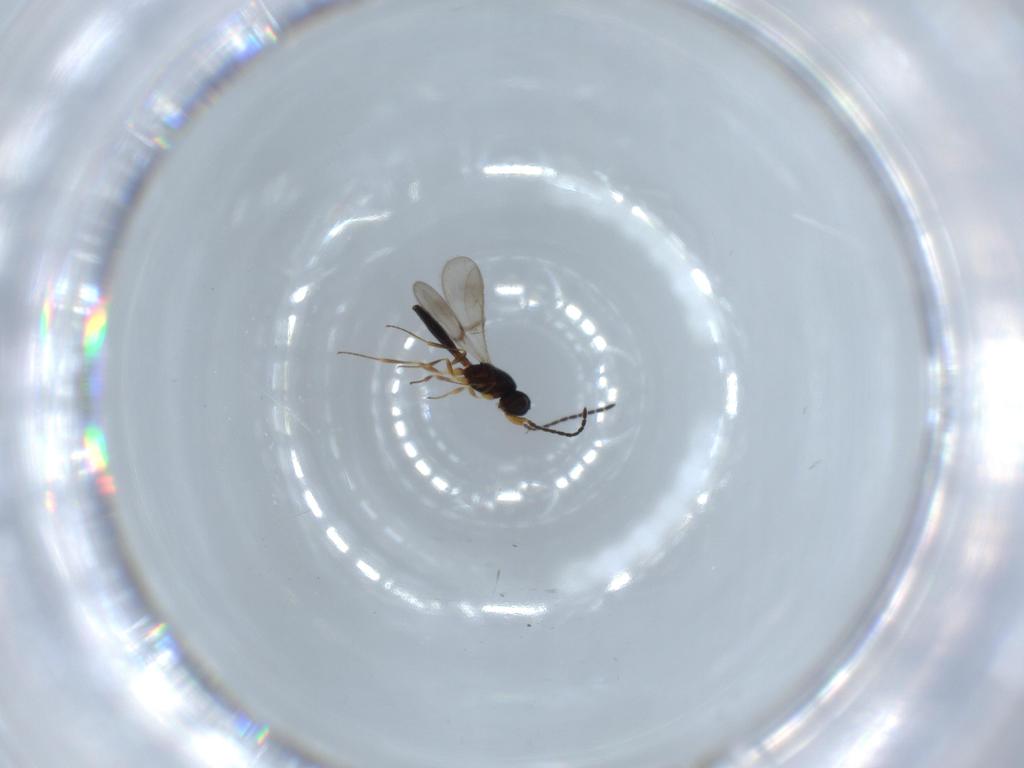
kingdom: Animalia
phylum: Arthropoda
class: Insecta
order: Hymenoptera
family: Scelionidae
